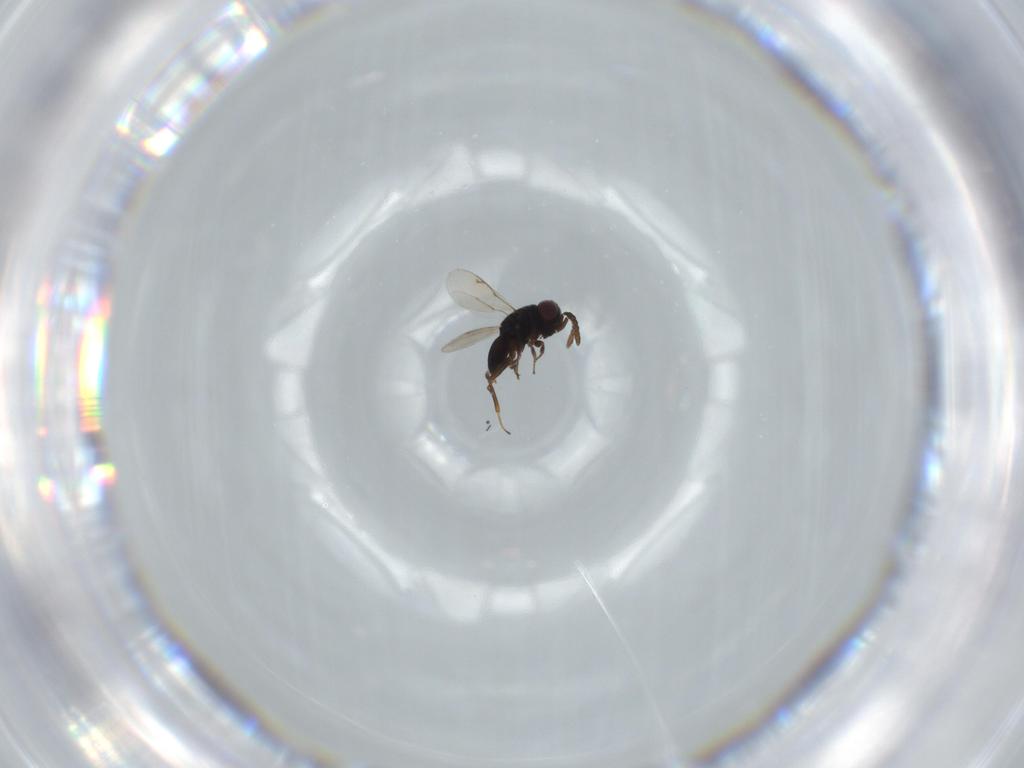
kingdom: Animalia
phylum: Arthropoda
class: Insecta
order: Hymenoptera
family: Eunotidae
